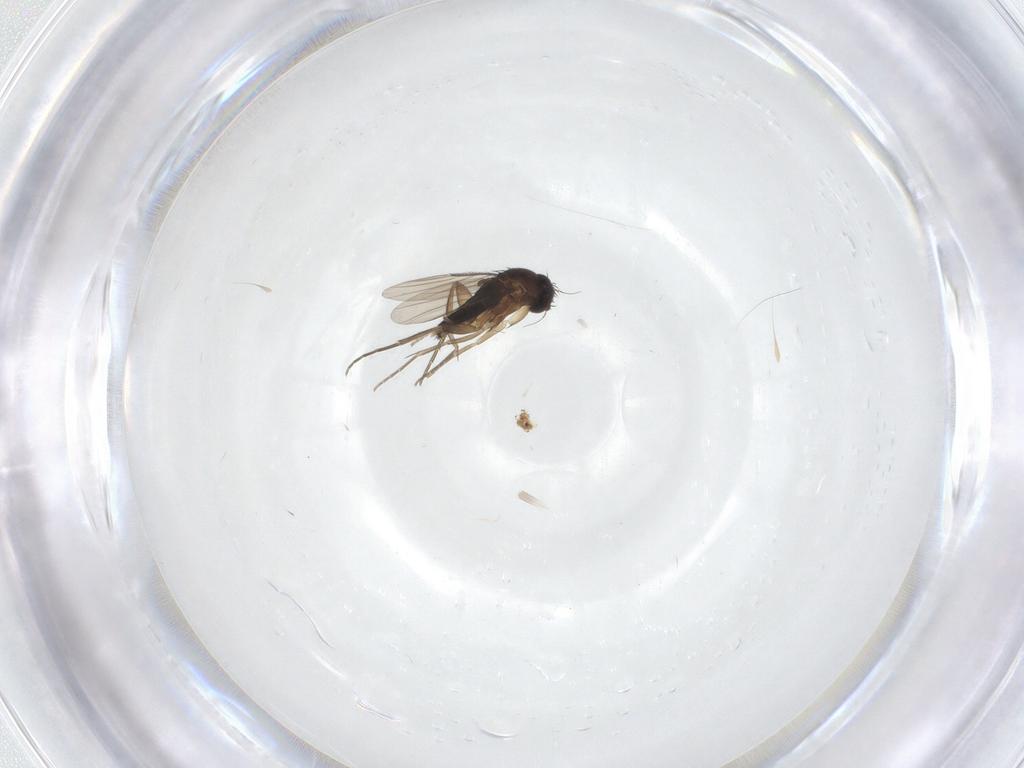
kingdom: Animalia
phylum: Arthropoda
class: Insecta
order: Diptera
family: Phoridae
